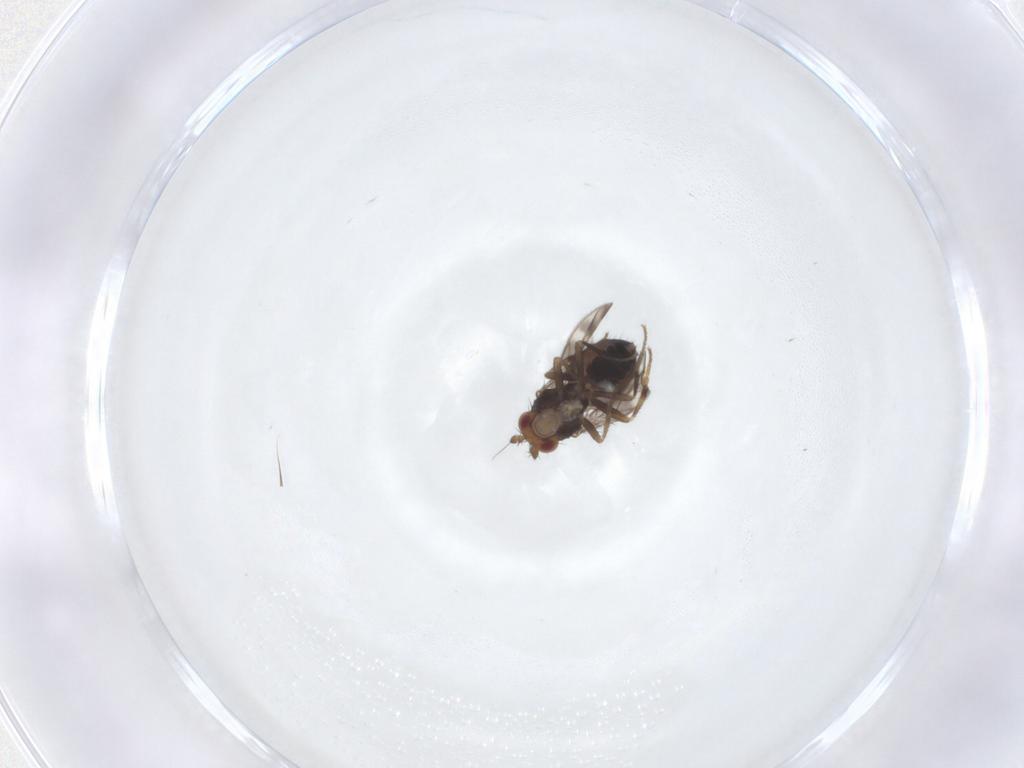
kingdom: Animalia
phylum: Arthropoda
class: Insecta
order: Diptera
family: Sphaeroceridae
